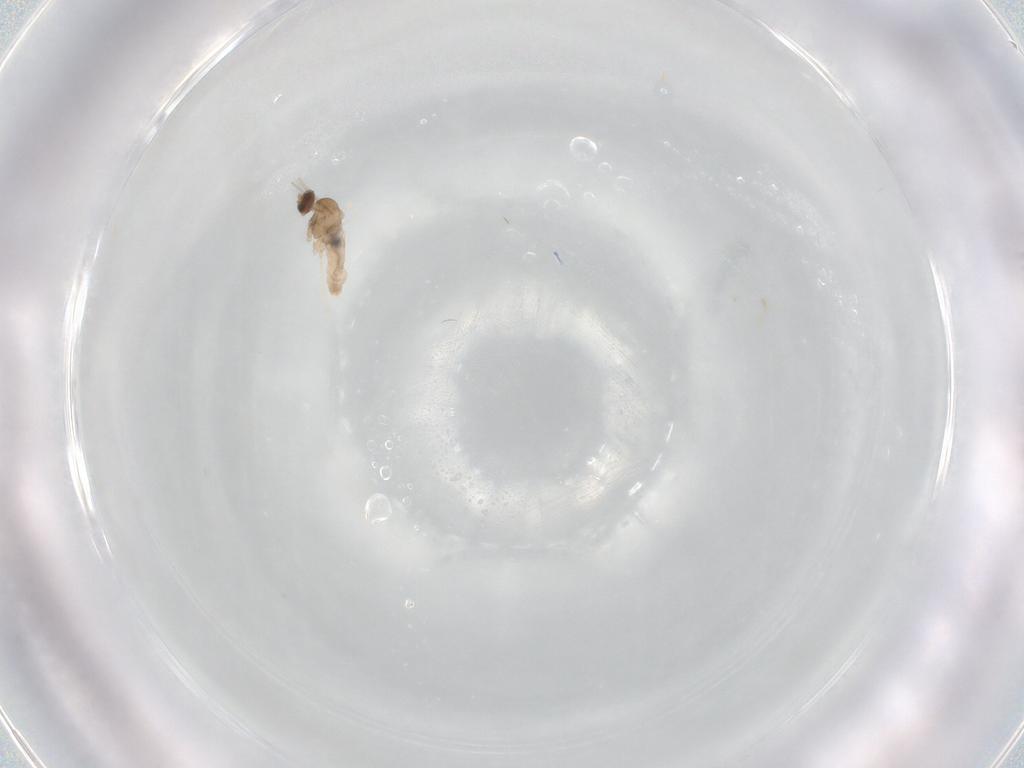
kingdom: Animalia
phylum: Arthropoda
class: Insecta
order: Diptera
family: Cecidomyiidae
